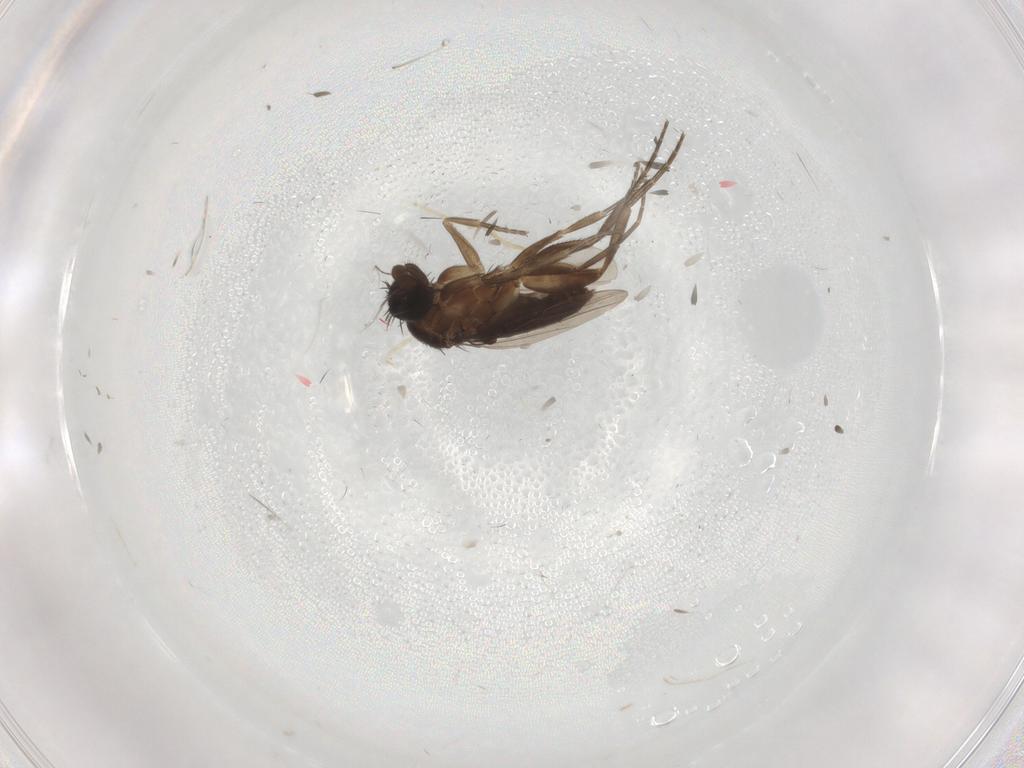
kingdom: Animalia
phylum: Arthropoda
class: Insecta
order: Diptera
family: Phoridae
